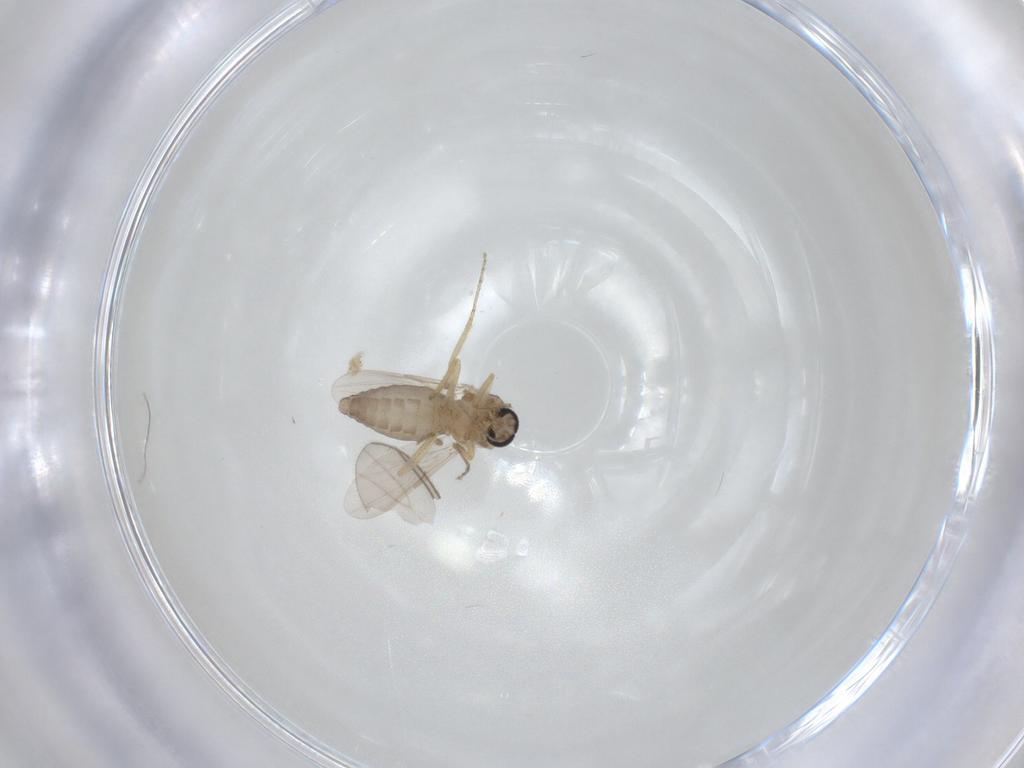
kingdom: Animalia
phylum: Arthropoda
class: Insecta
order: Diptera
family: Ceratopogonidae
